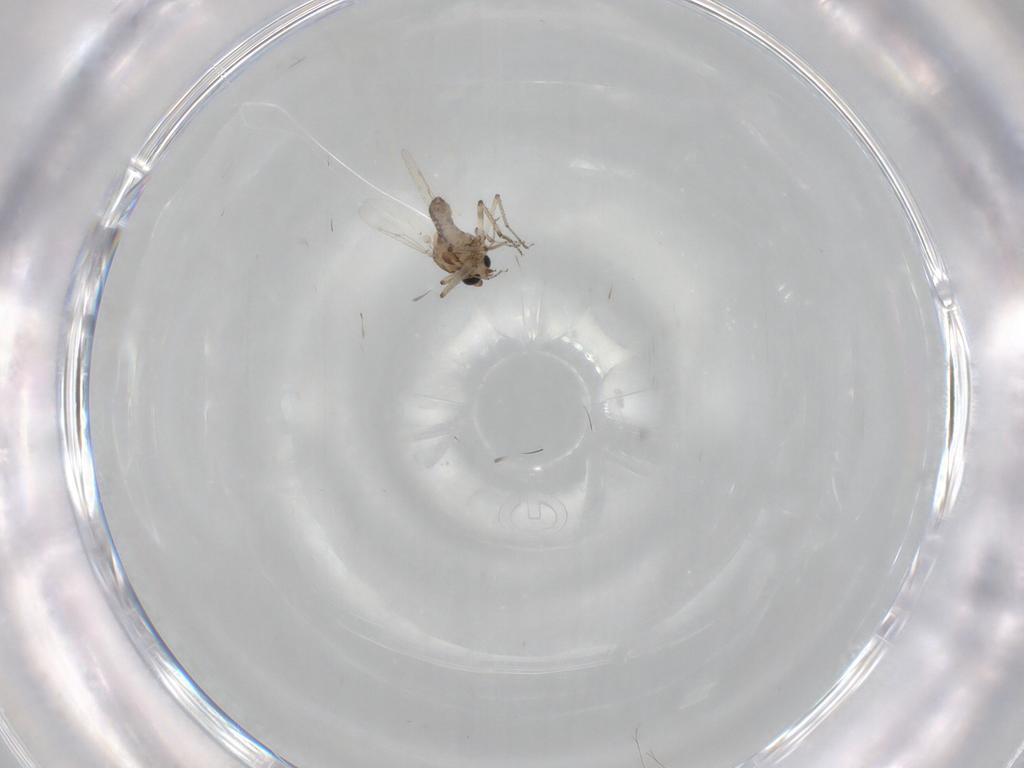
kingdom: Animalia
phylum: Arthropoda
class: Insecta
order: Diptera
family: Ceratopogonidae
